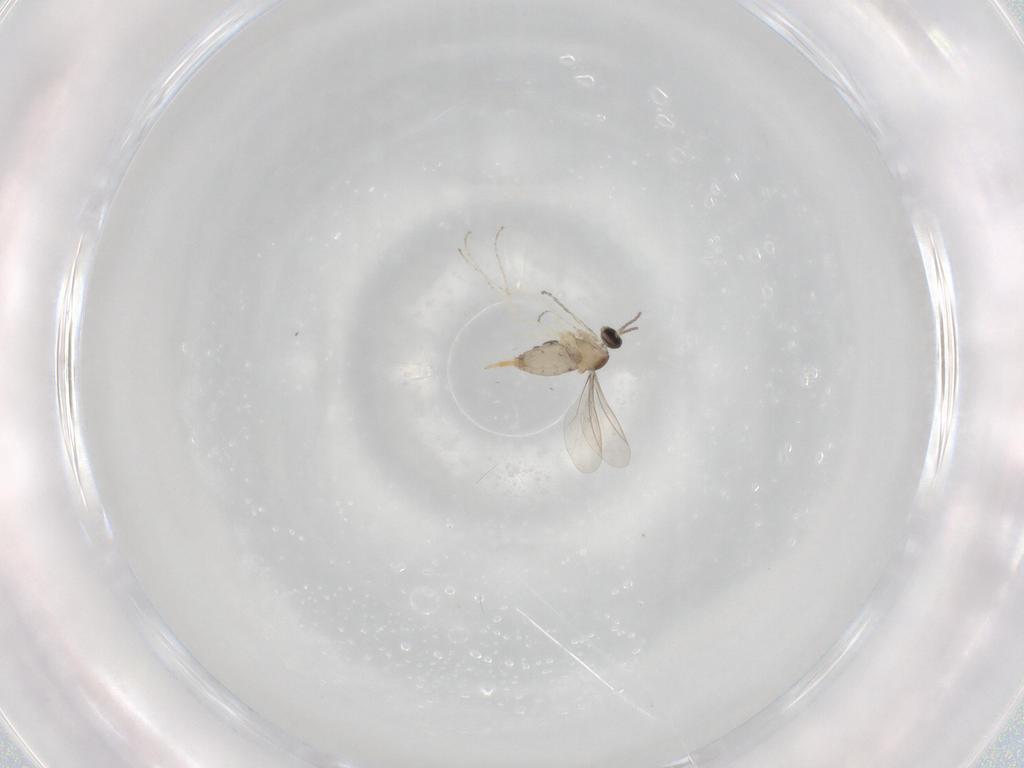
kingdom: Animalia
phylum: Arthropoda
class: Insecta
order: Diptera
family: Cecidomyiidae
